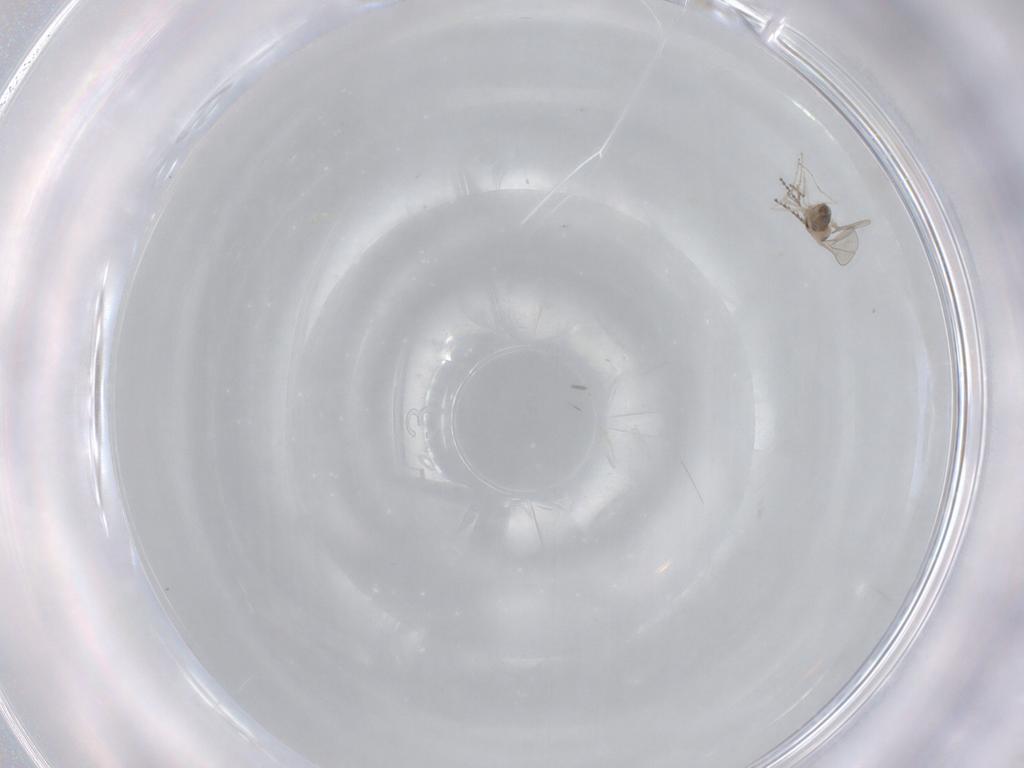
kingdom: Animalia
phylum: Arthropoda
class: Insecta
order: Diptera
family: Cecidomyiidae
